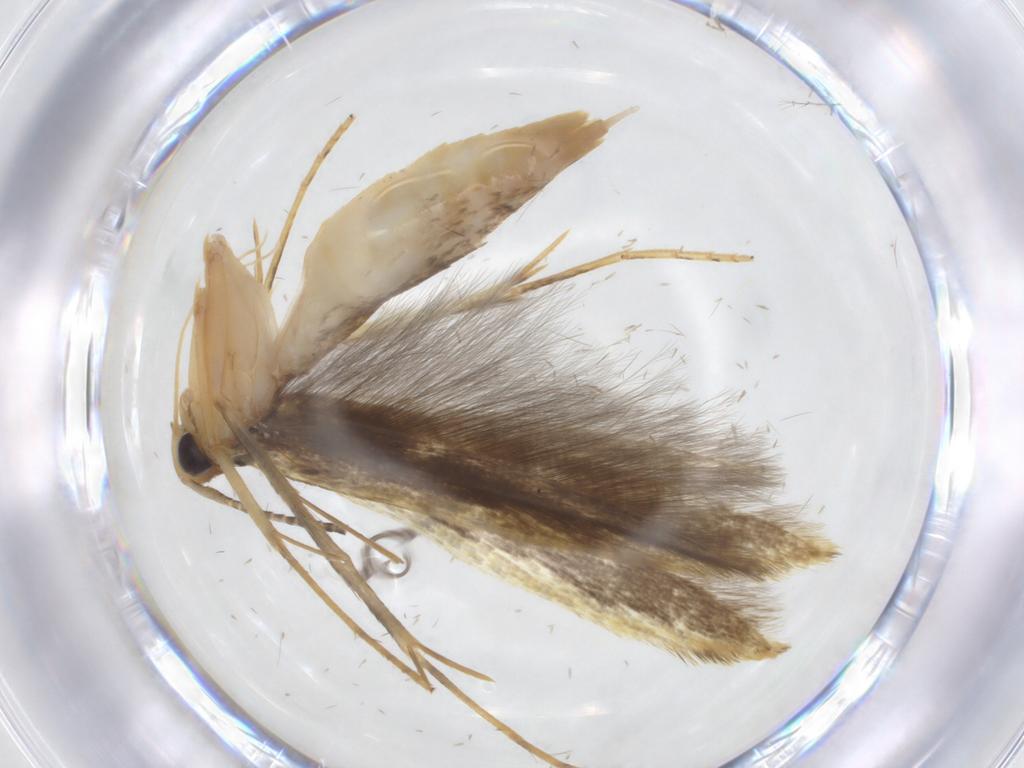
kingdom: Animalia
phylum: Arthropoda
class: Insecta
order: Lepidoptera
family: Pterolonchidae
